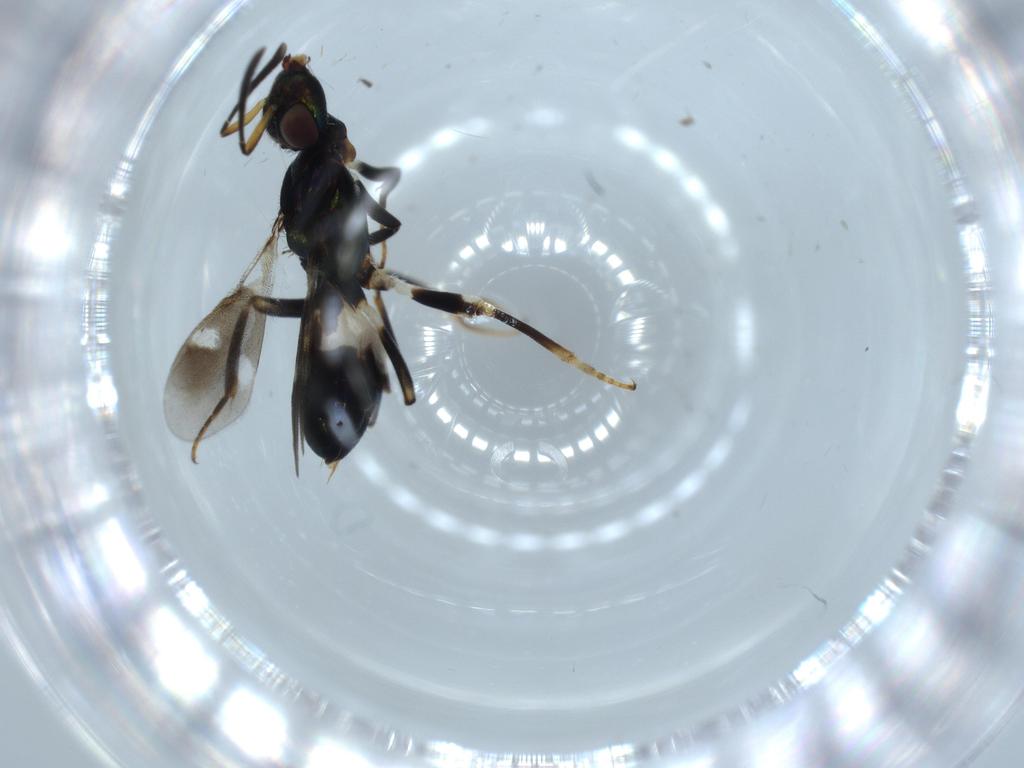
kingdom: Animalia
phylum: Arthropoda
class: Insecta
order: Hymenoptera
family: Eupelmidae
